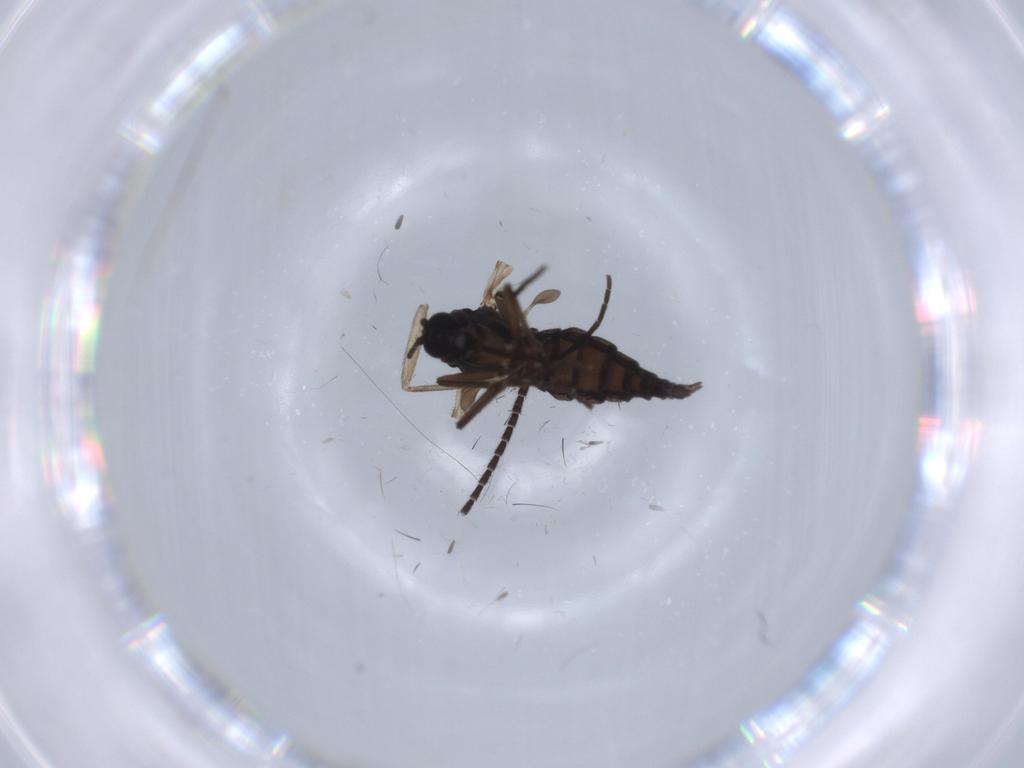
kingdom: Animalia
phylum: Arthropoda
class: Insecta
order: Diptera
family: Sciaridae
